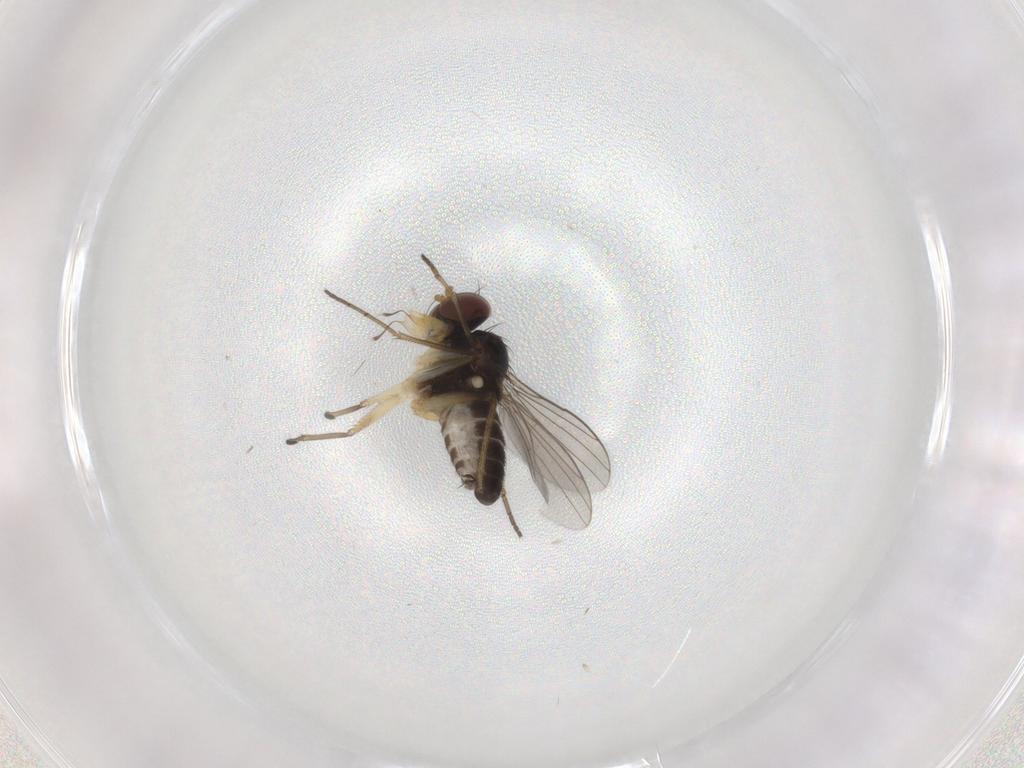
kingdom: Animalia
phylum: Arthropoda
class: Insecta
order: Diptera
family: Dolichopodidae
